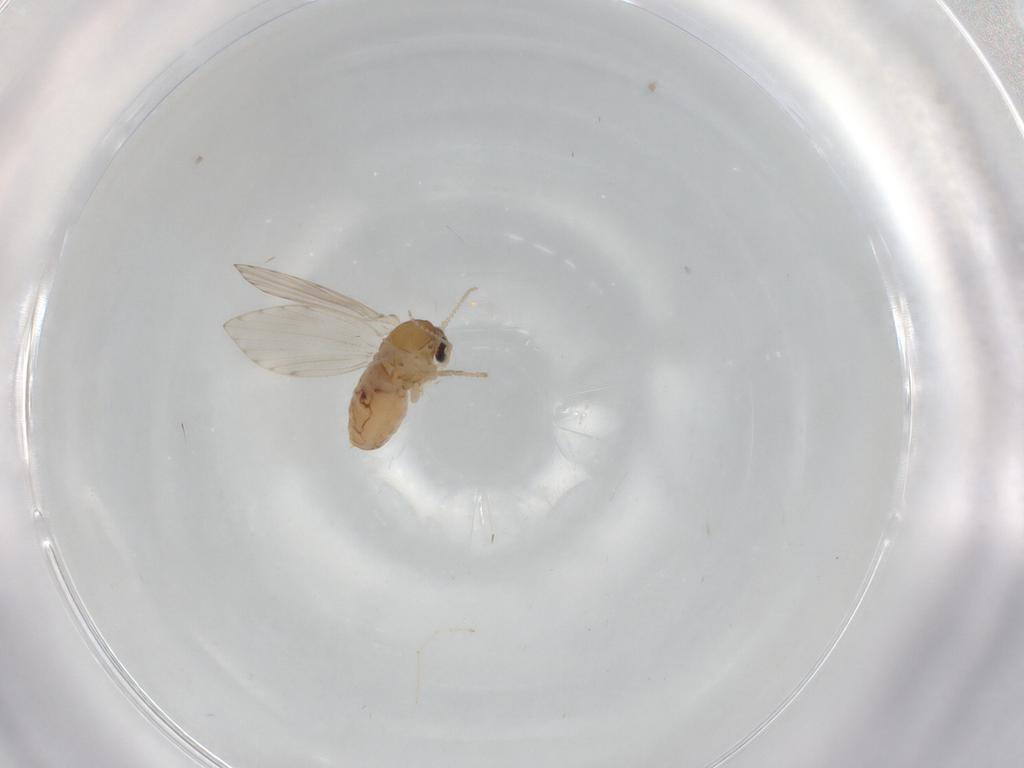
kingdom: Animalia
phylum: Arthropoda
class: Insecta
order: Diptera
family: Psychodidae
